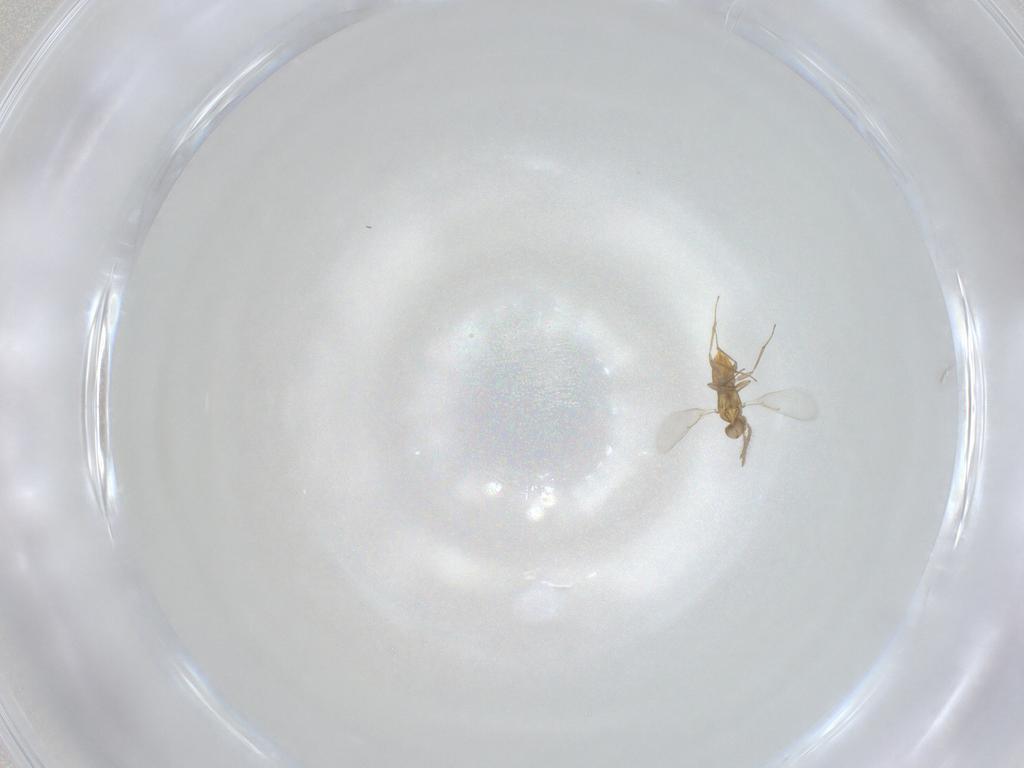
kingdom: Animalia
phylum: Arthropoda
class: Insecta
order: Hymenoptera
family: Aphelinidae
